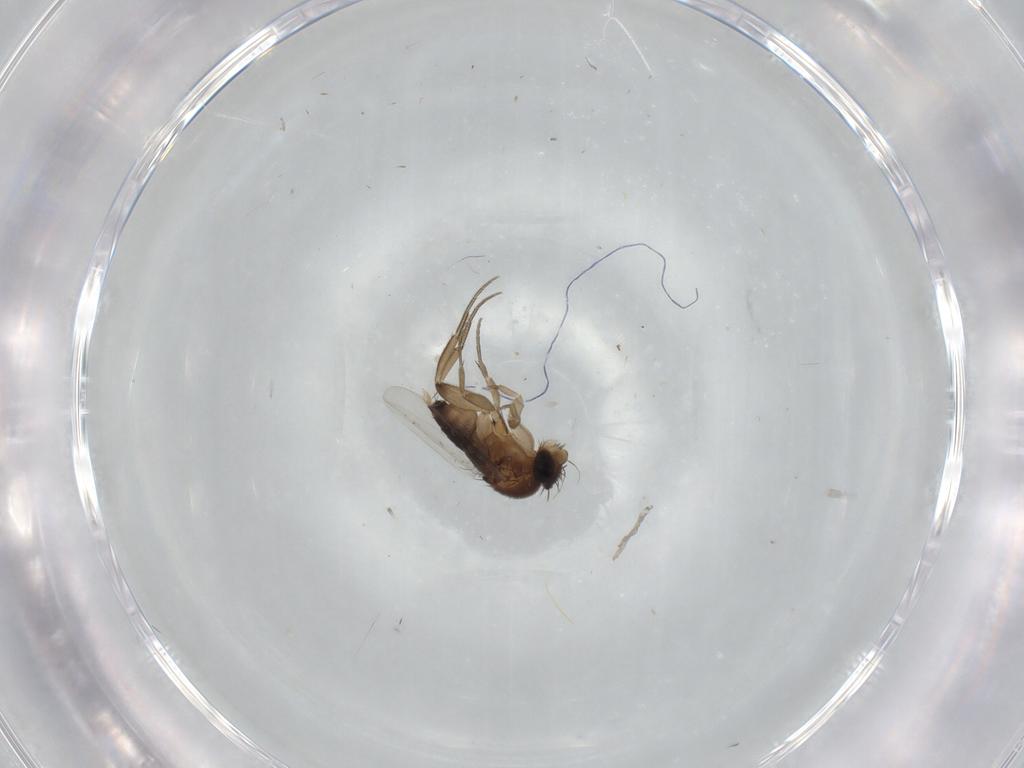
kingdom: Animalia
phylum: Arthropoda
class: Insecta
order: Diptera
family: Phoridae
